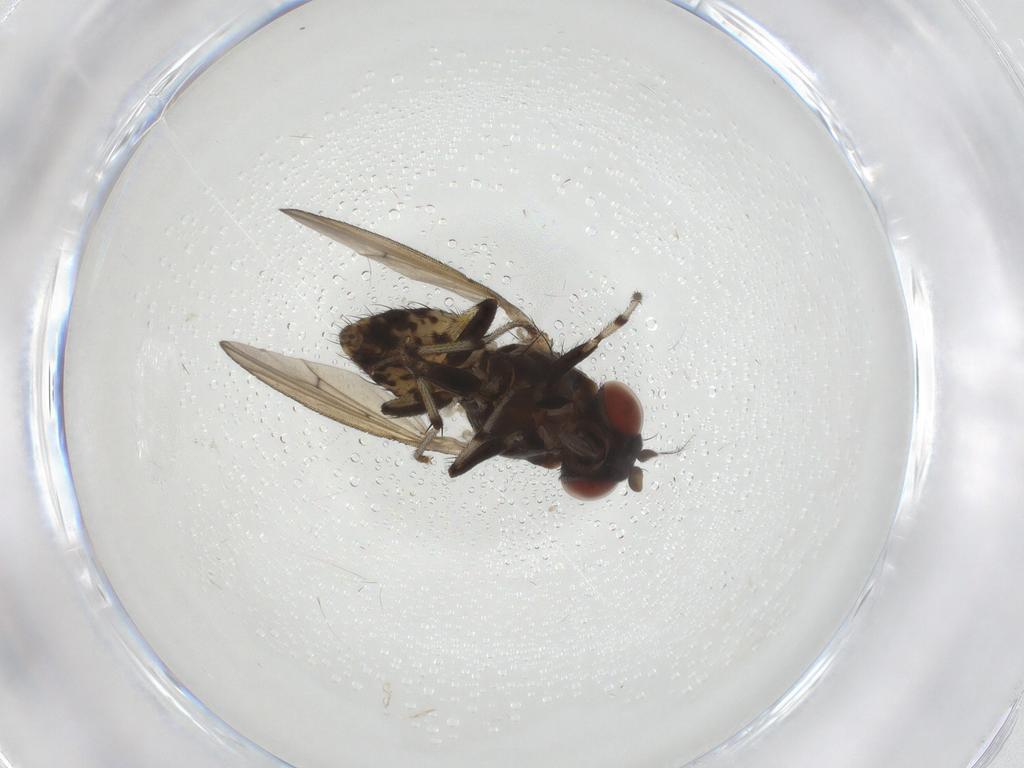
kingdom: Animalia
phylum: Arthropoda
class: Insecta
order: Diptera
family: Lauxaniidae
